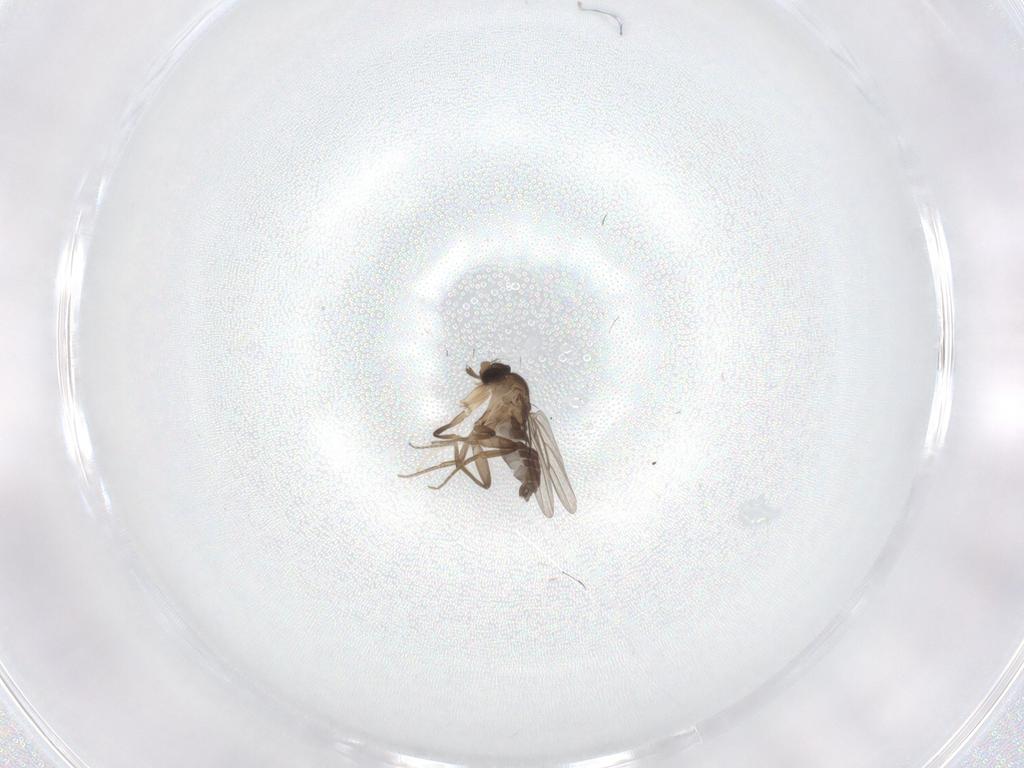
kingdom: Animalia
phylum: Arthropoda
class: Insecta
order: Diptera
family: Phoridae
